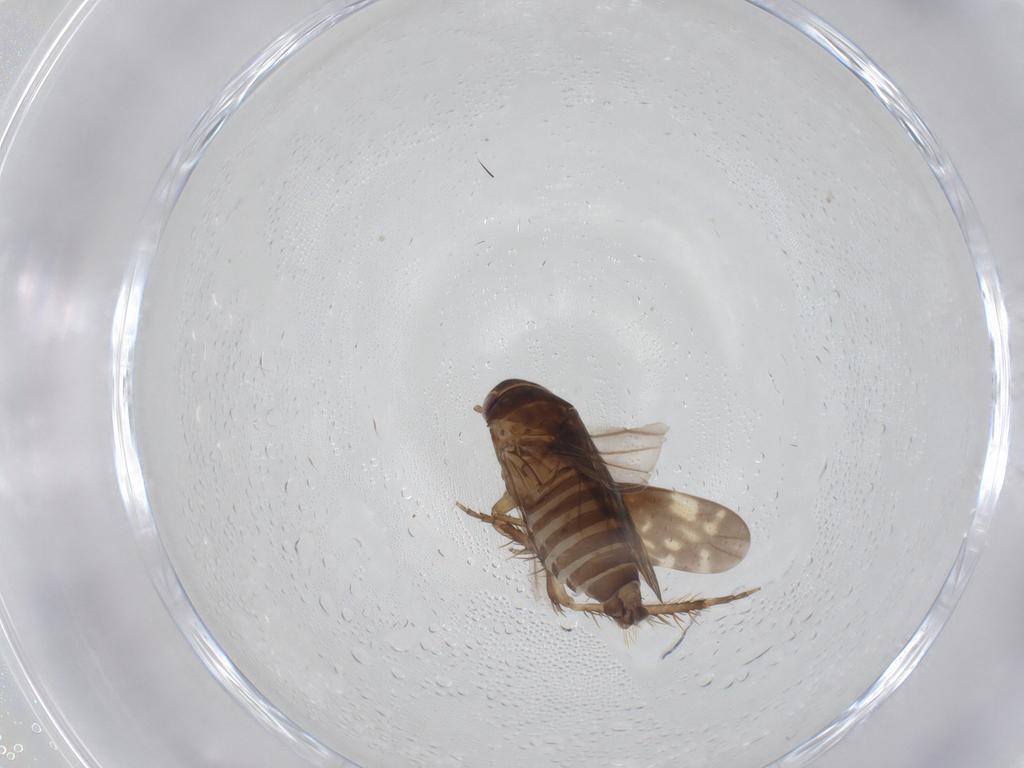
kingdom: Animalia
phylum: Arthropoda
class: Insecta
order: Hemiptera
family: Cicadellidae
